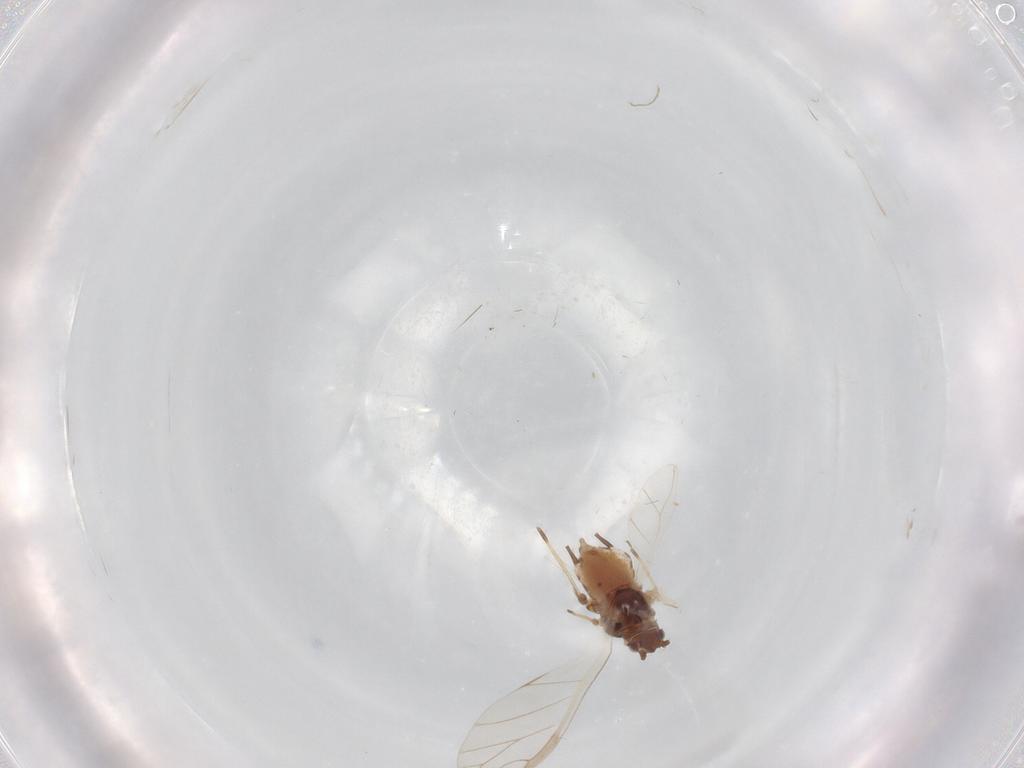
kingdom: Animalia
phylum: Arthropoda
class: Insecta
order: Hemiptera
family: Aphididae
